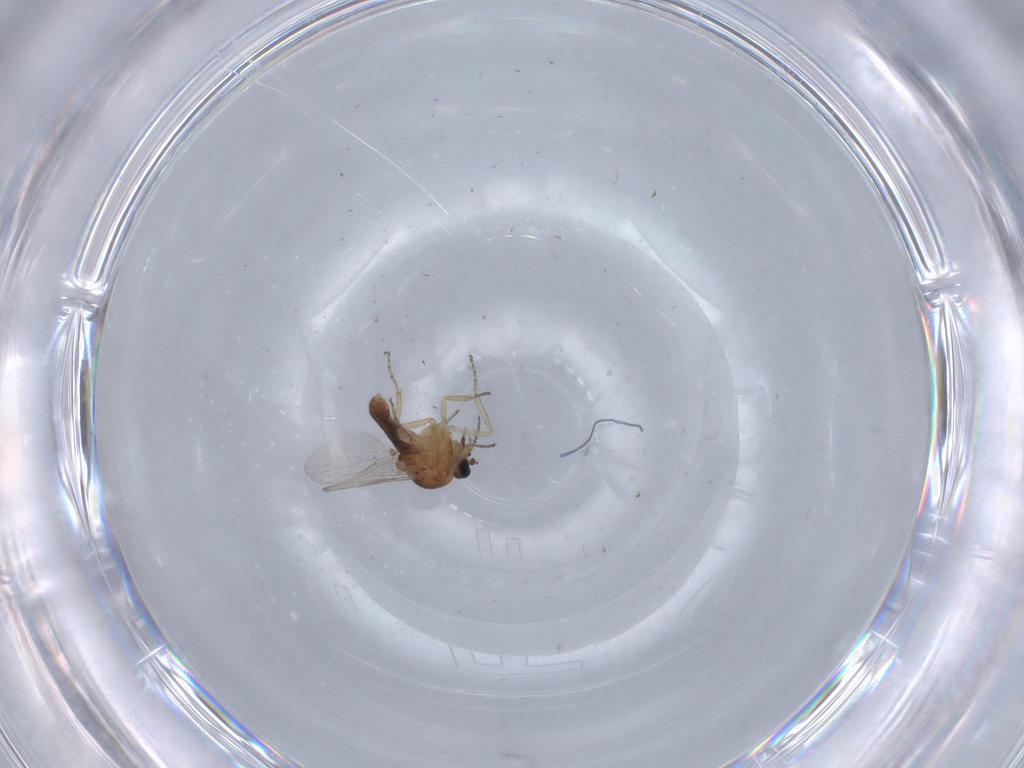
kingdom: Animalia
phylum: Arthropoda
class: Insecta
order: Diptera
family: Ceratopogonidae
